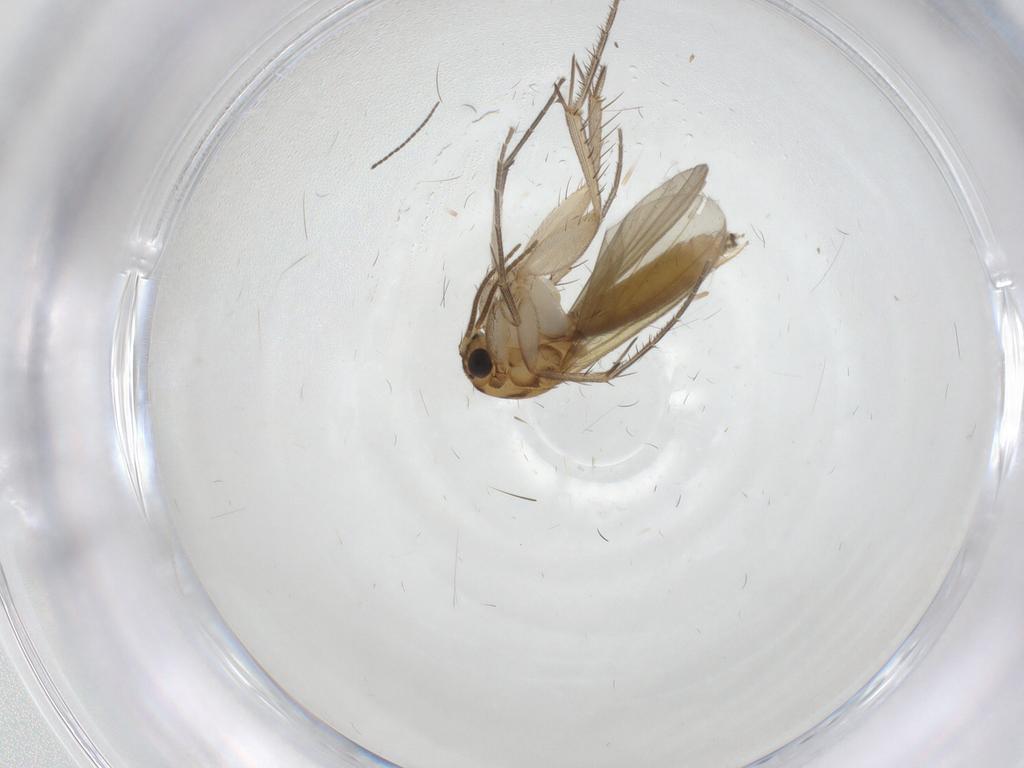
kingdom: Animalia
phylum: Arthropoda
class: Insecta
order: Diptera
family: Mycetophilidae
